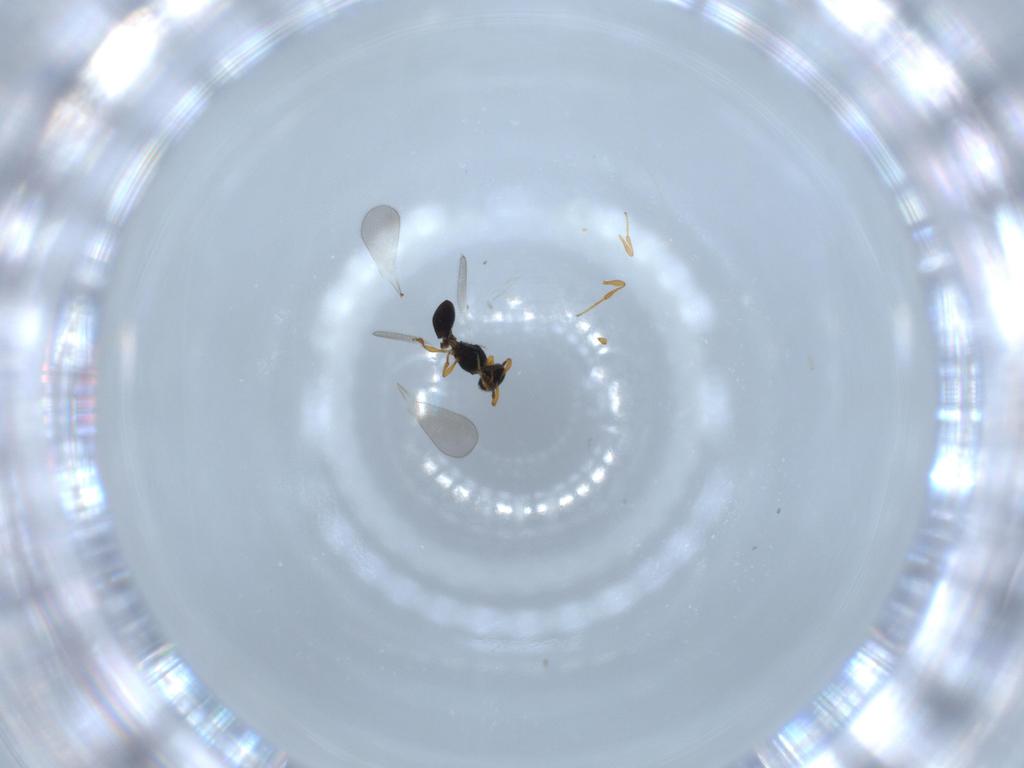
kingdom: Animalia
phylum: Arthropoda
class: Insecta
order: Hymenoptera
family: Platygastridae
